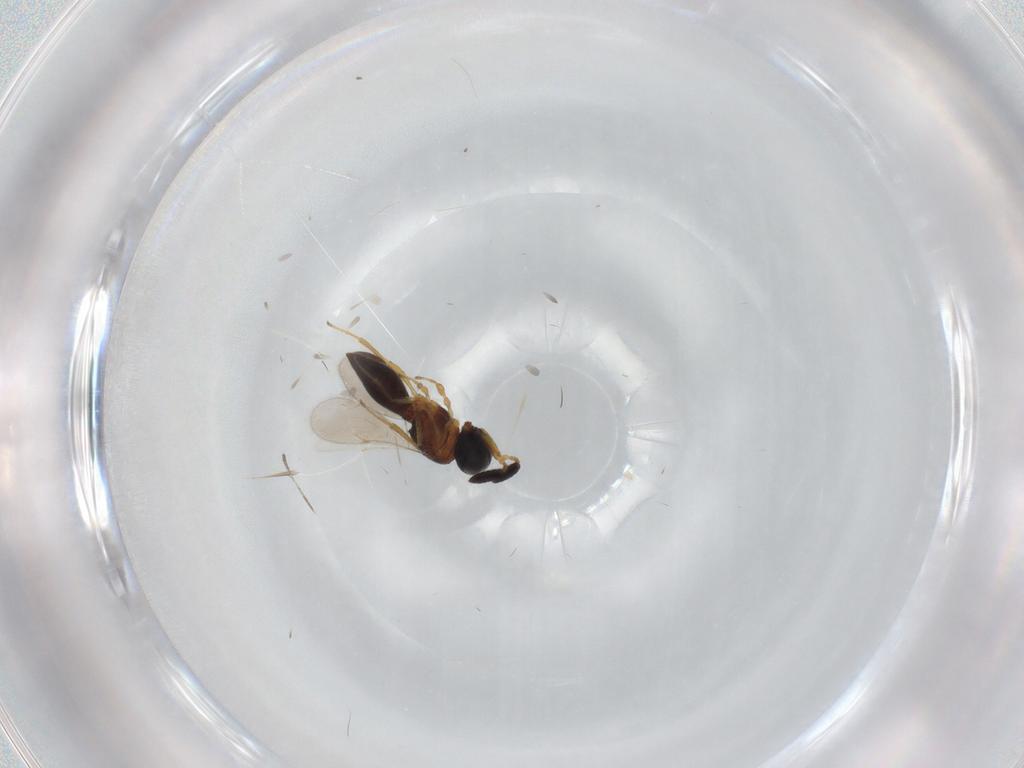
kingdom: Animalia
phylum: Arthropoda
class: Insecta
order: Hymenoptera
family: Scelionidae
